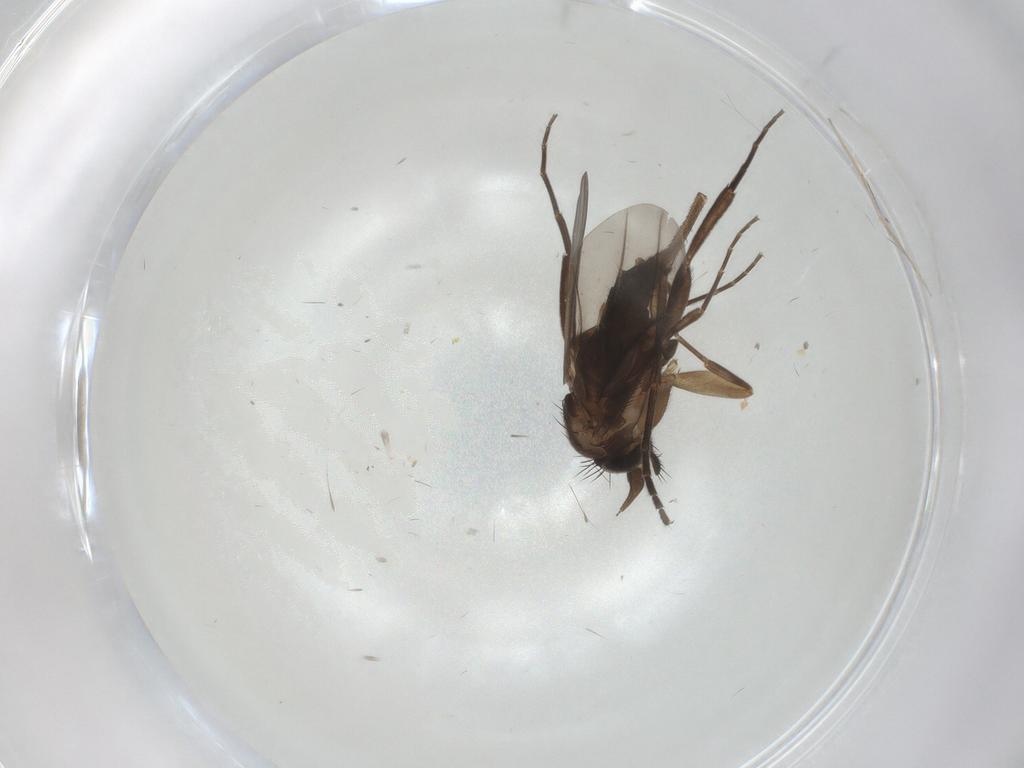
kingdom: Animalia
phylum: Arthropoda
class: Insecta
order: Diptera
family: Phoridae
